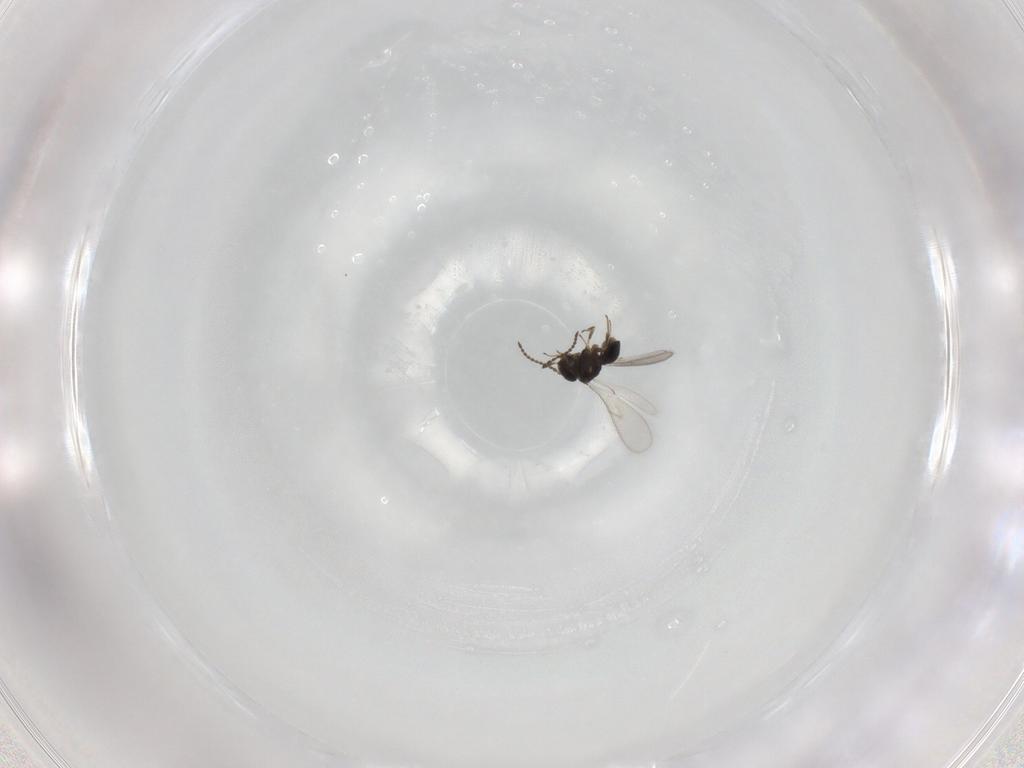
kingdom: Animalia
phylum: Arthropoda
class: Insecta
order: Hymenoptera
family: Scelionidae
